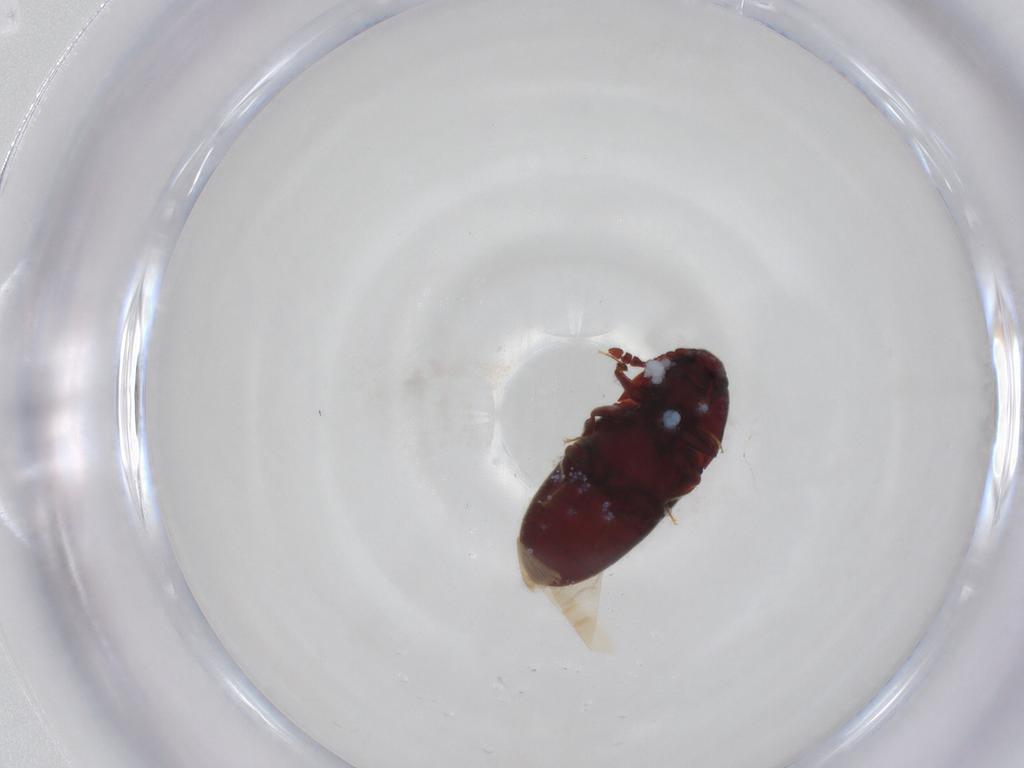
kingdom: Animalia
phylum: Arthropoda
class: Insecta
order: Coleoptera
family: Throscidae
